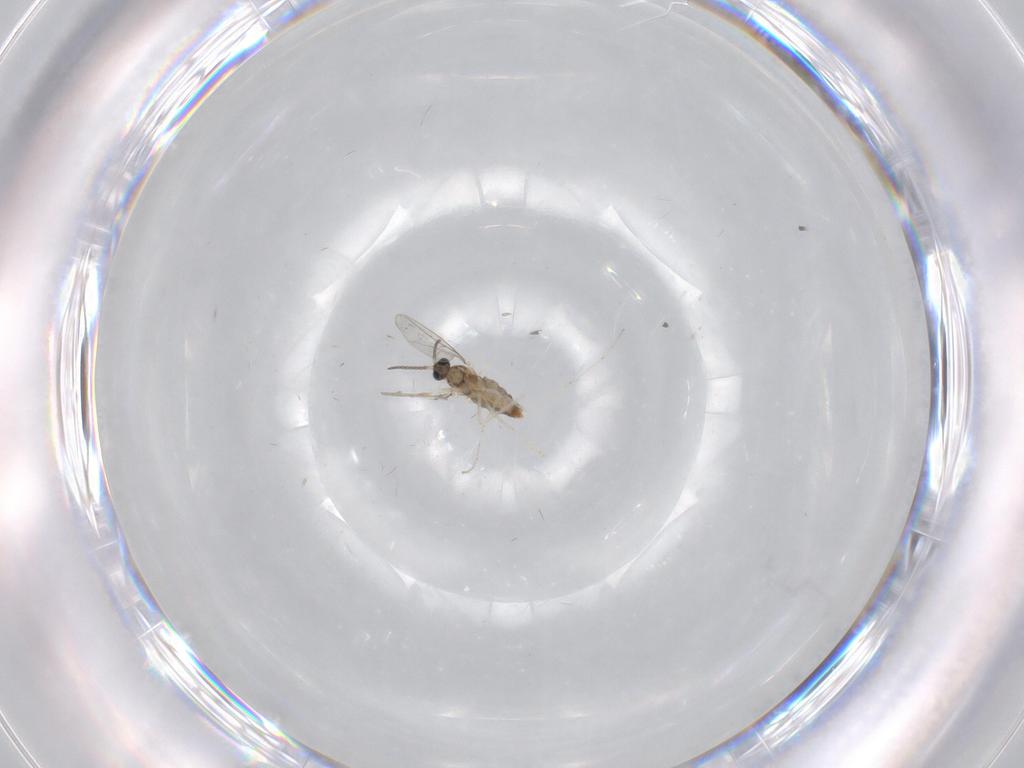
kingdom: Animalia
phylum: Arthropoda
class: Insecta
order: Diptera
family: Cecidomyiidae
